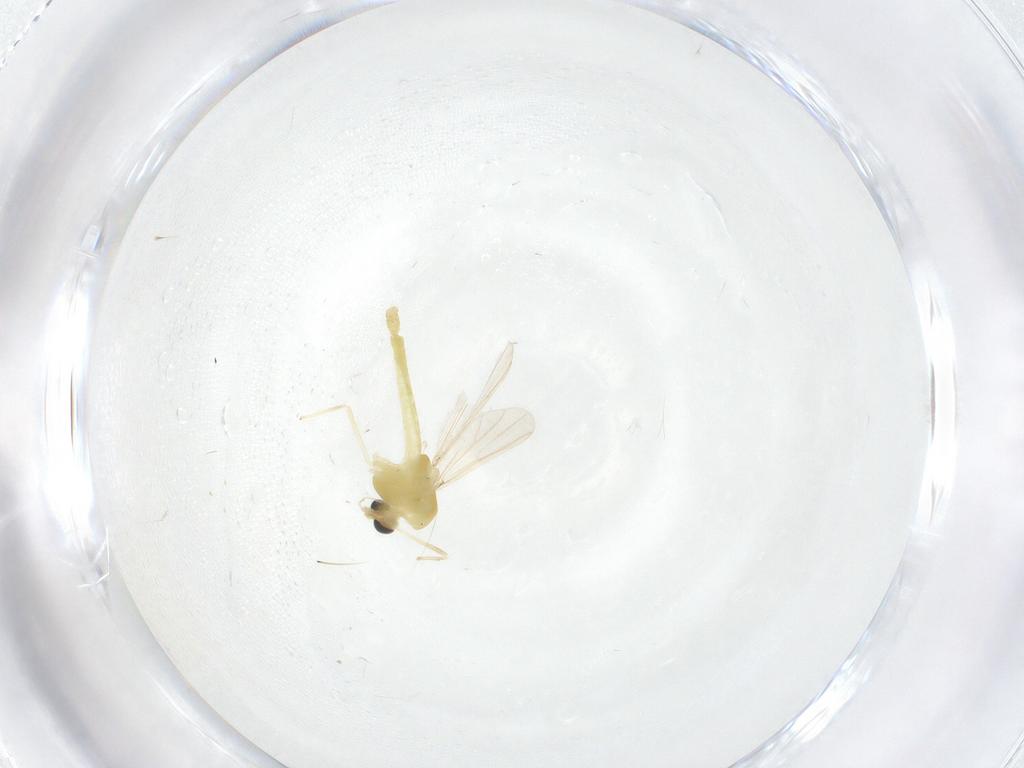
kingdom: Animalia
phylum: Arthropoda
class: Insecta
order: Diptera
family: Chironomidae
